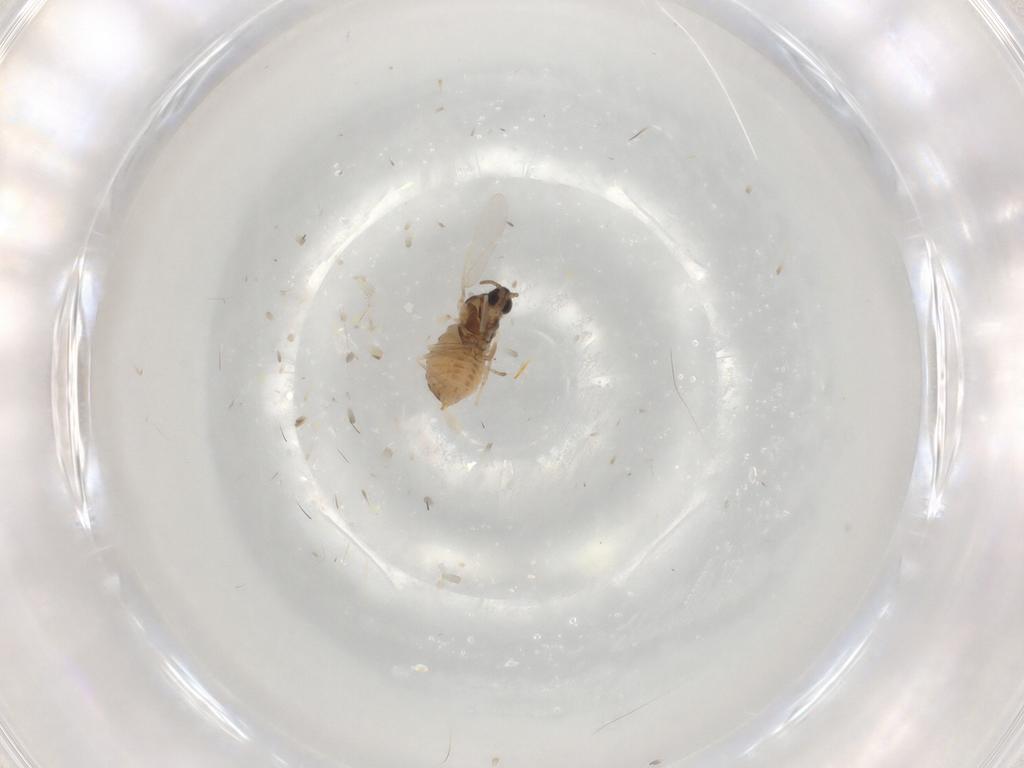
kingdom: Animalia
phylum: Arthropoda
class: Insecta
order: Diptera
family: Cecidomyiidae
